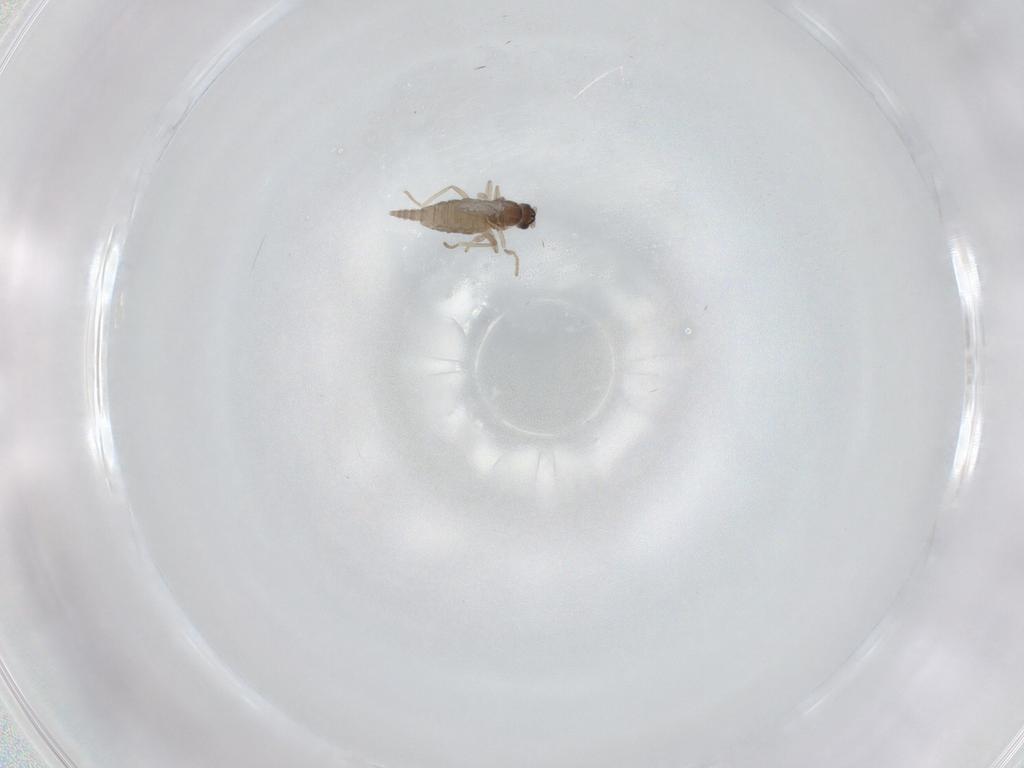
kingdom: Animalia
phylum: Arthropoda
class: Insecta
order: Diptera
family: Cecidomyiidae
